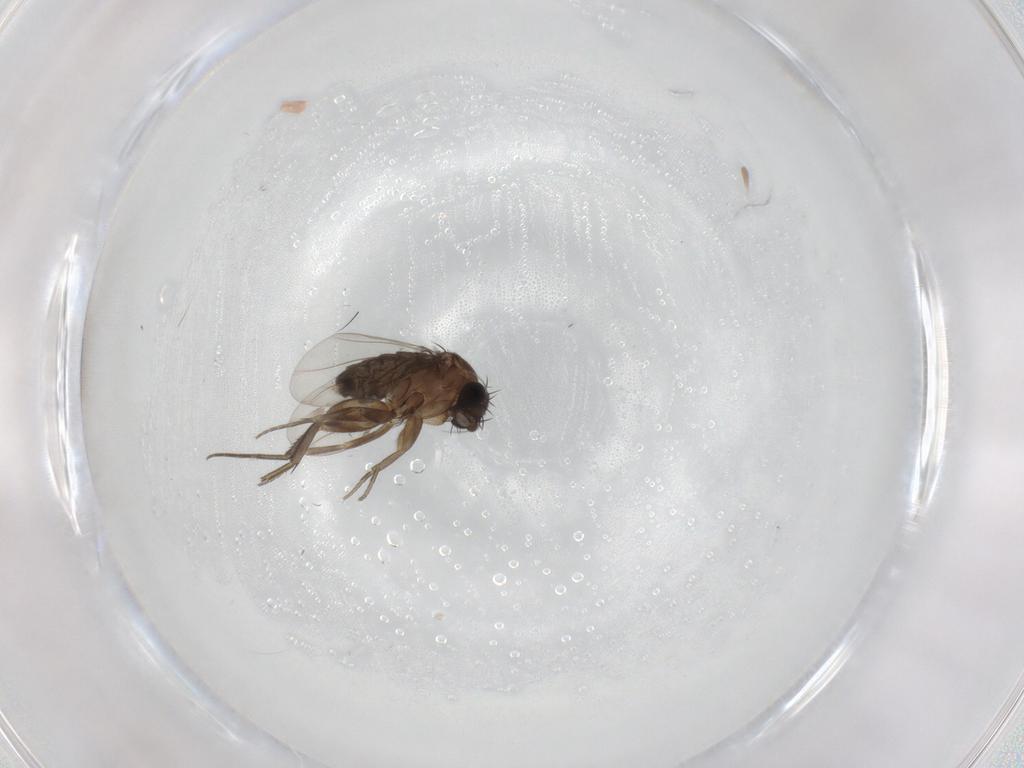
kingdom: Animalia
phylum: Arthropoda
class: Insecta
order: Diptera
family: Phoridae
